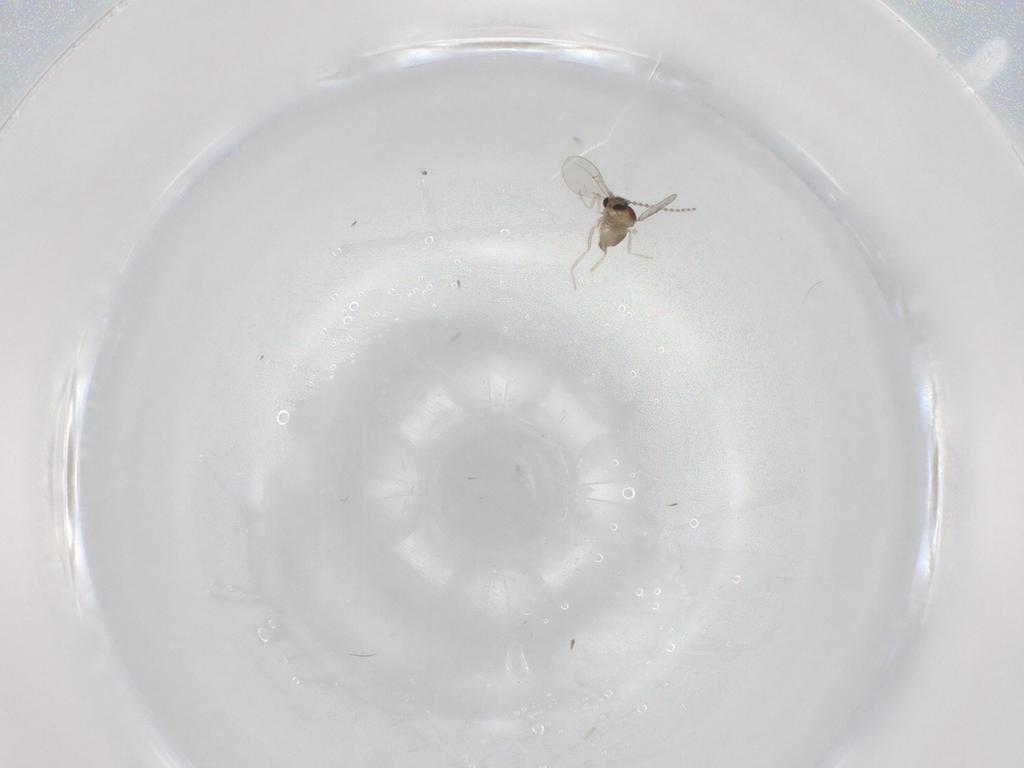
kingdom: Animalia
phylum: Arthropoda
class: Insecta
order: Diptera
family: Cecidomyiidae
